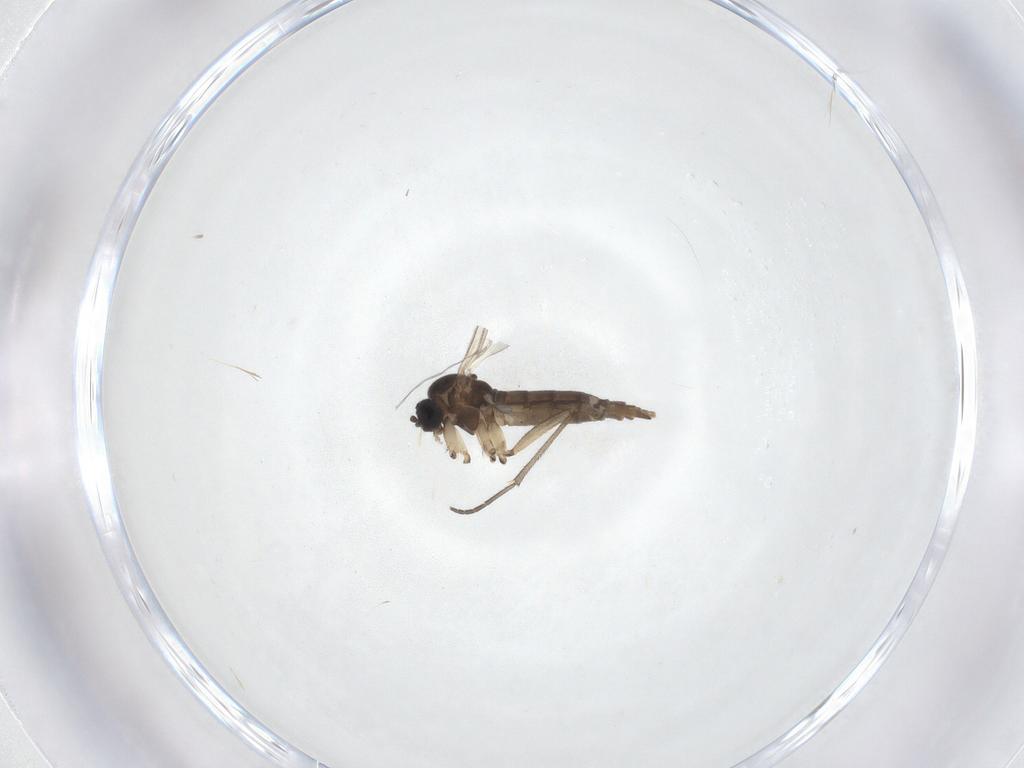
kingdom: Animalia
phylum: Arthropoda
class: Insecta
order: Diptera
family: Sciaridae
